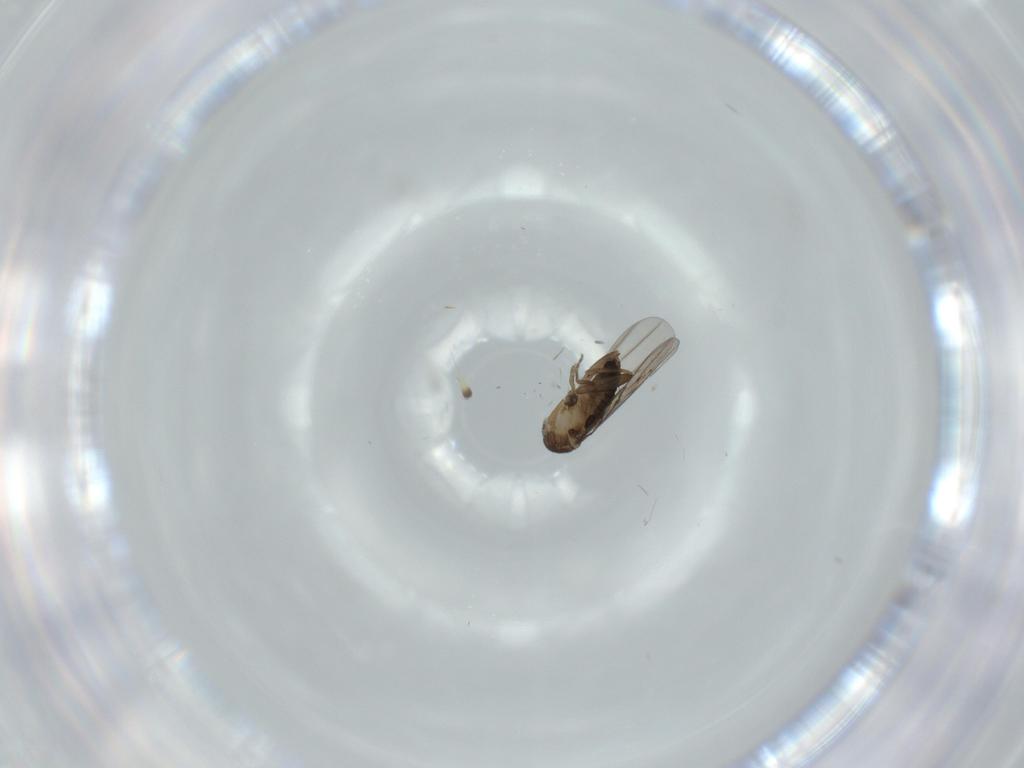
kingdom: Animalia
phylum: Arthropoda
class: Insecta
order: Diptera
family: Phoridae
